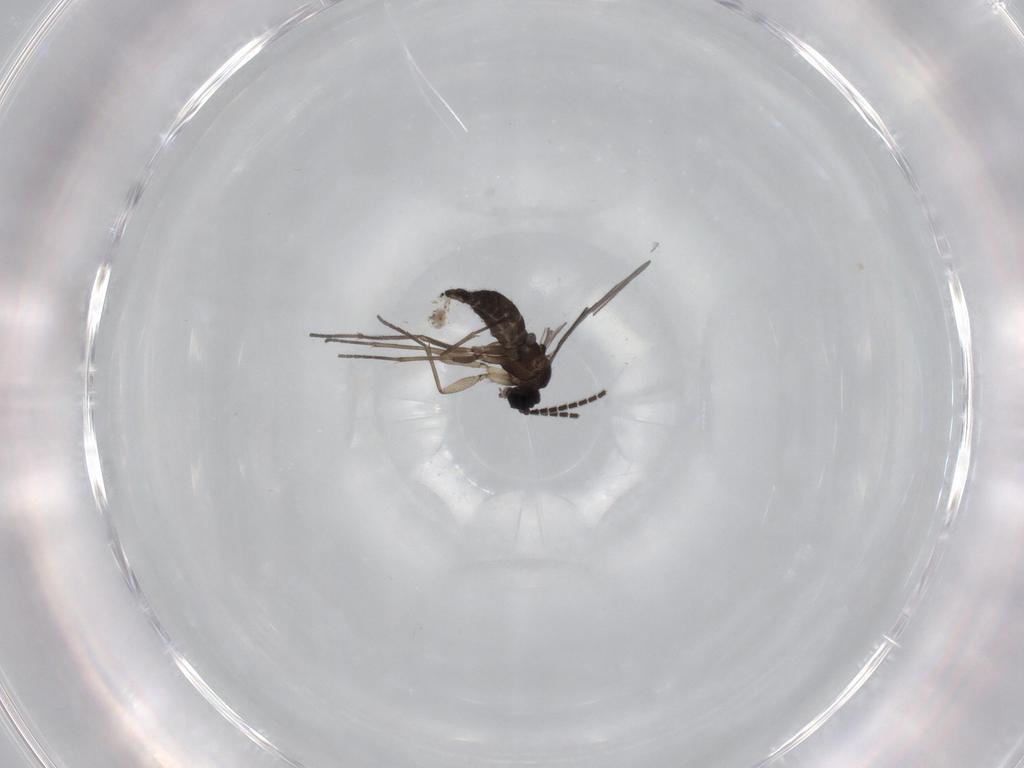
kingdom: Animalia
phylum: Arthropoda
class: Insecta
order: Diptera
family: Sciaridae
